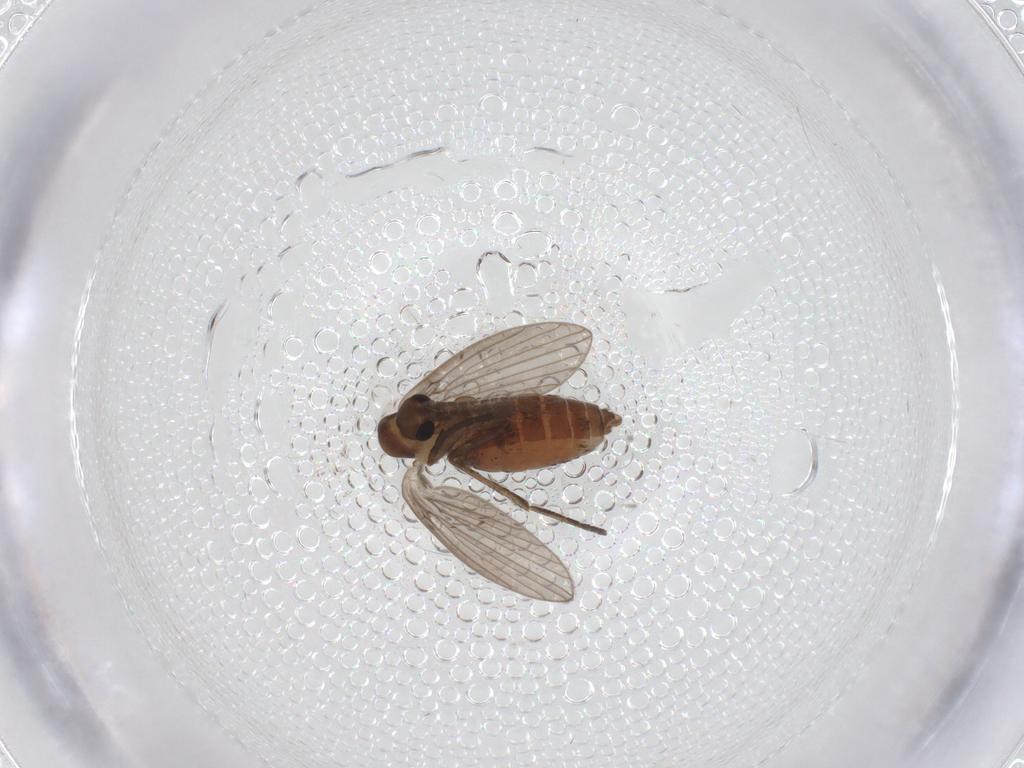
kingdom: Animalia
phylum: Arthropoda
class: Insecta
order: Diptera
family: Psychodidae
